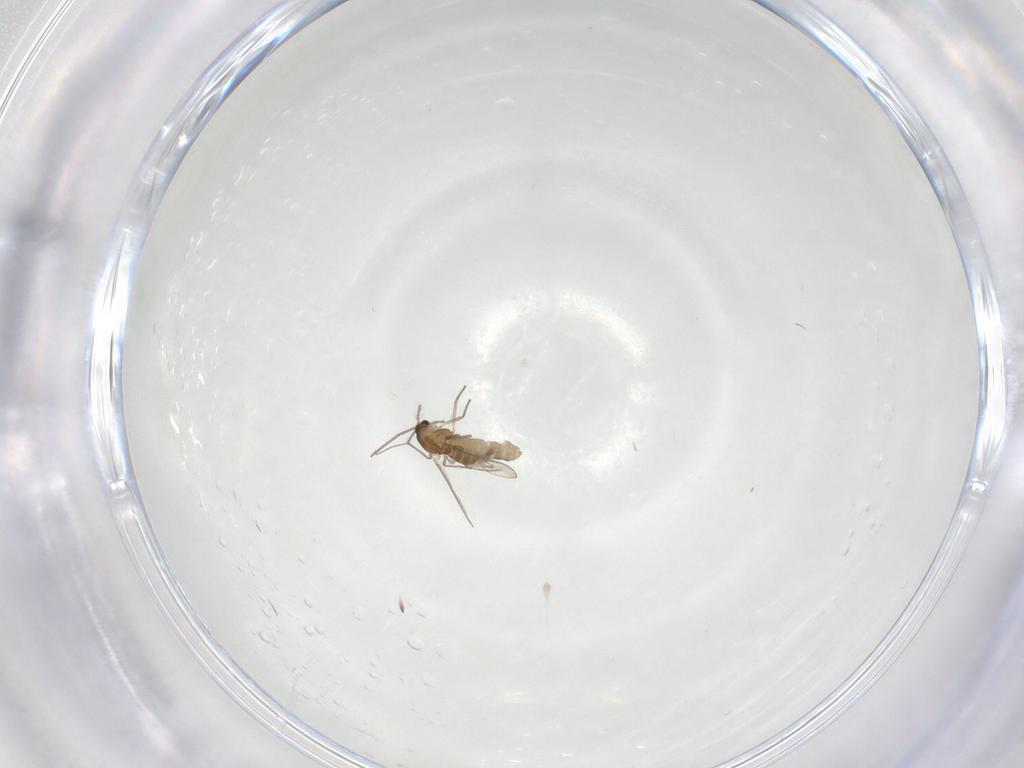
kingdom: Animalia
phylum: Arthropoda
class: Insecta
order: Diptera
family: Chironomidae
